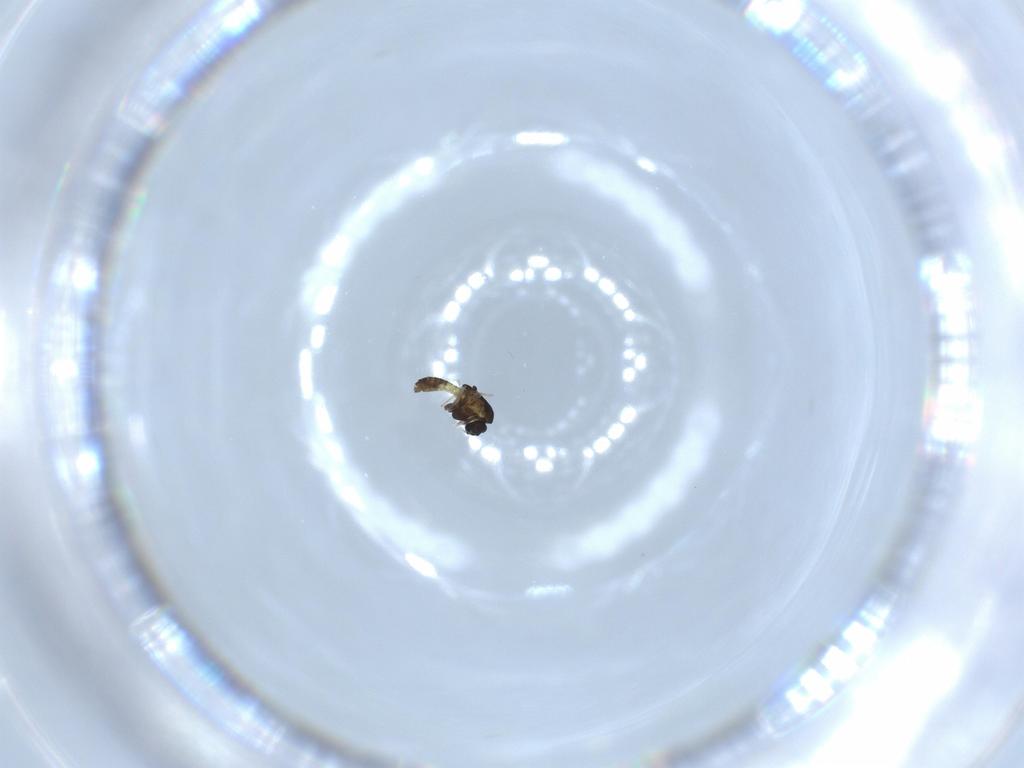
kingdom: Animalia
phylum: Arthropoda
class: Insecta
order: Diptera
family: Chironomidae
